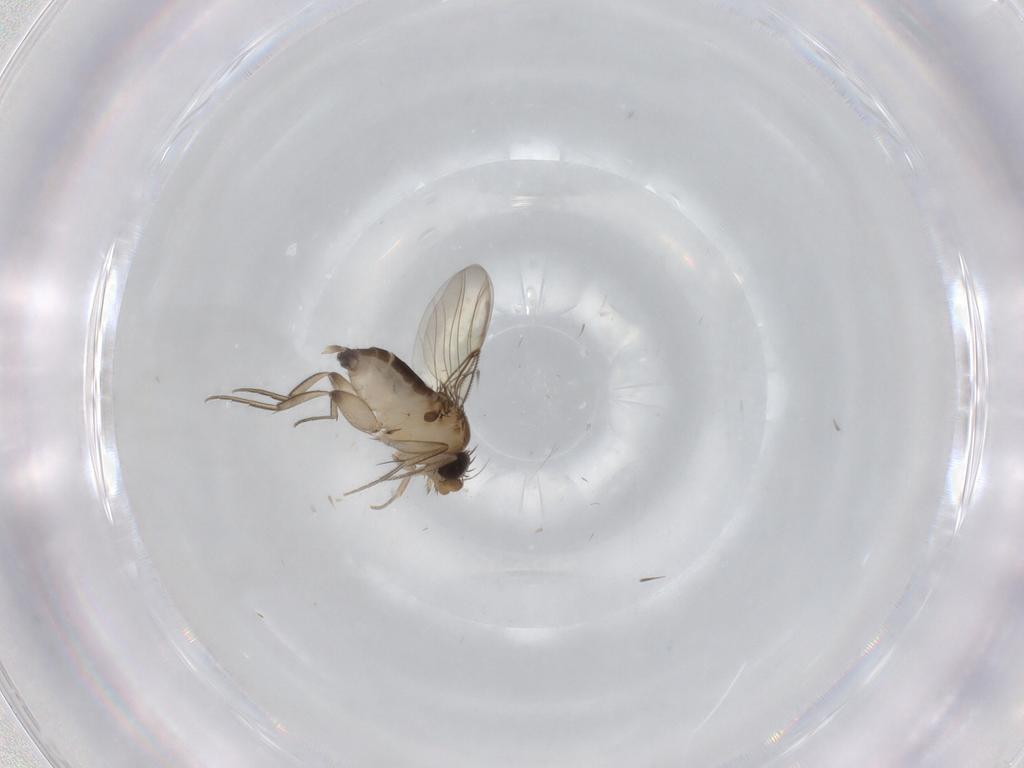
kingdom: Animalia
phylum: Arthropoda
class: Insecta
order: Diptera
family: Phoridae
